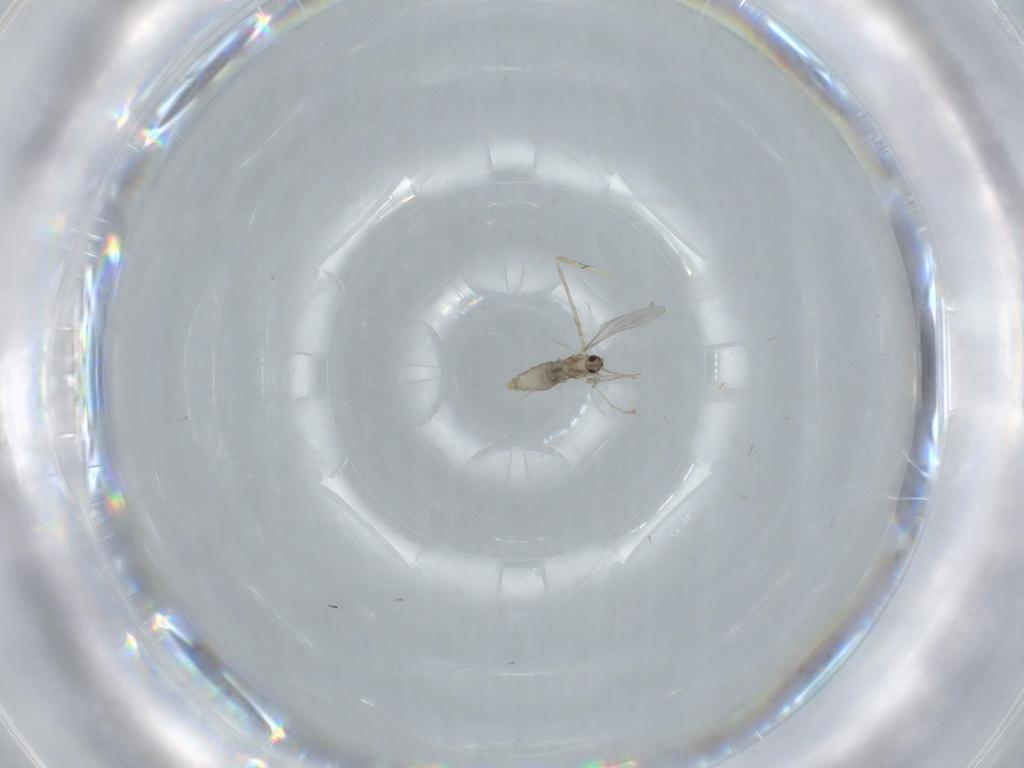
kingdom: Animalia
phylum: Arthropoda
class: Insecta
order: Diptera
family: Cecidomyiidae
